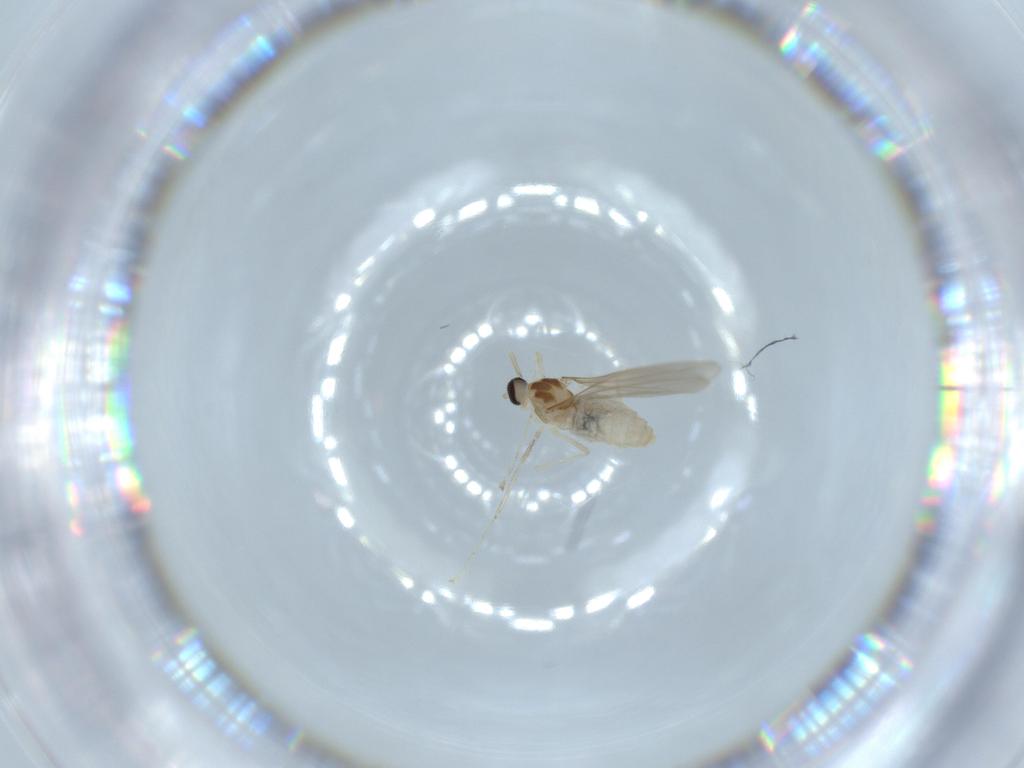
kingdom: Animalia
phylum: Arthropoda
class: Insecta
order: Diptera
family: Cecidomyiidae
